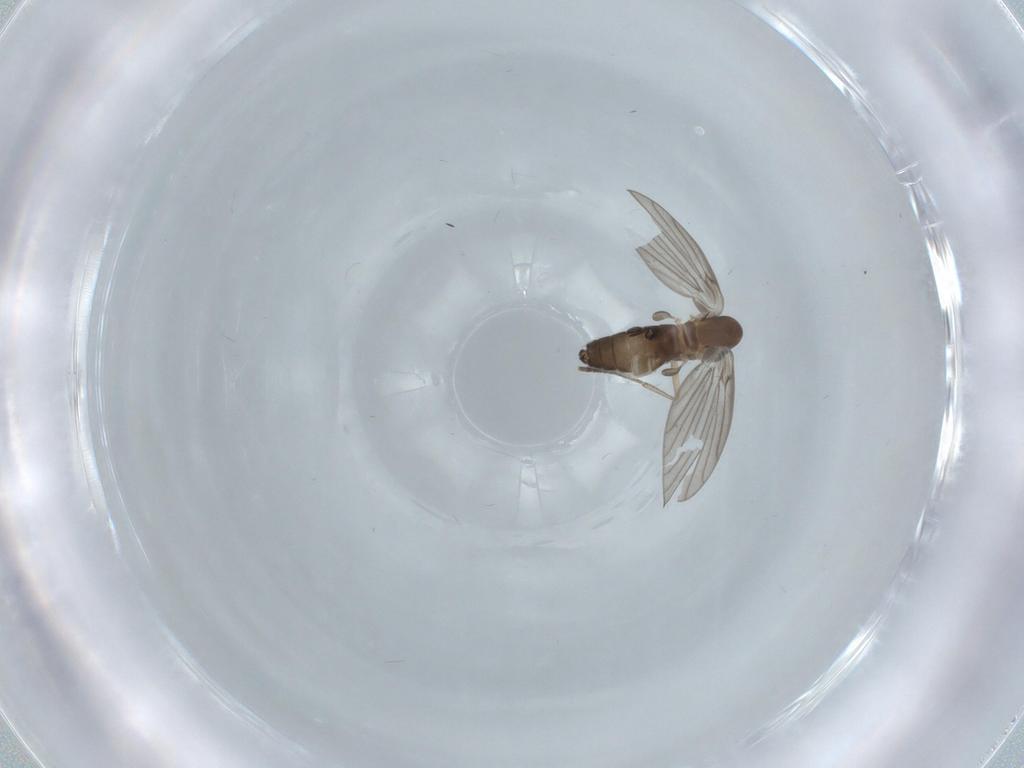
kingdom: Animalia
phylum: Arthropoda
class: Insecta
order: Diptera
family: Psychodidae
